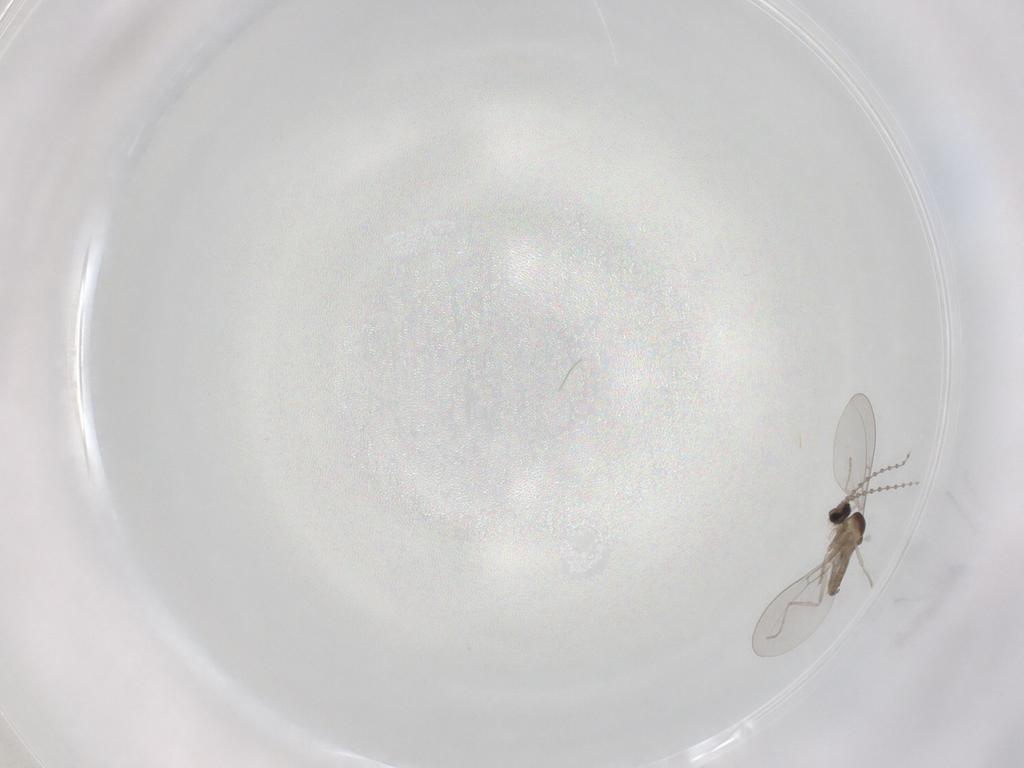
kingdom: Animalia
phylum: Arthropoda
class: Insecta
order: Diptera
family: Cecidomyiidae
